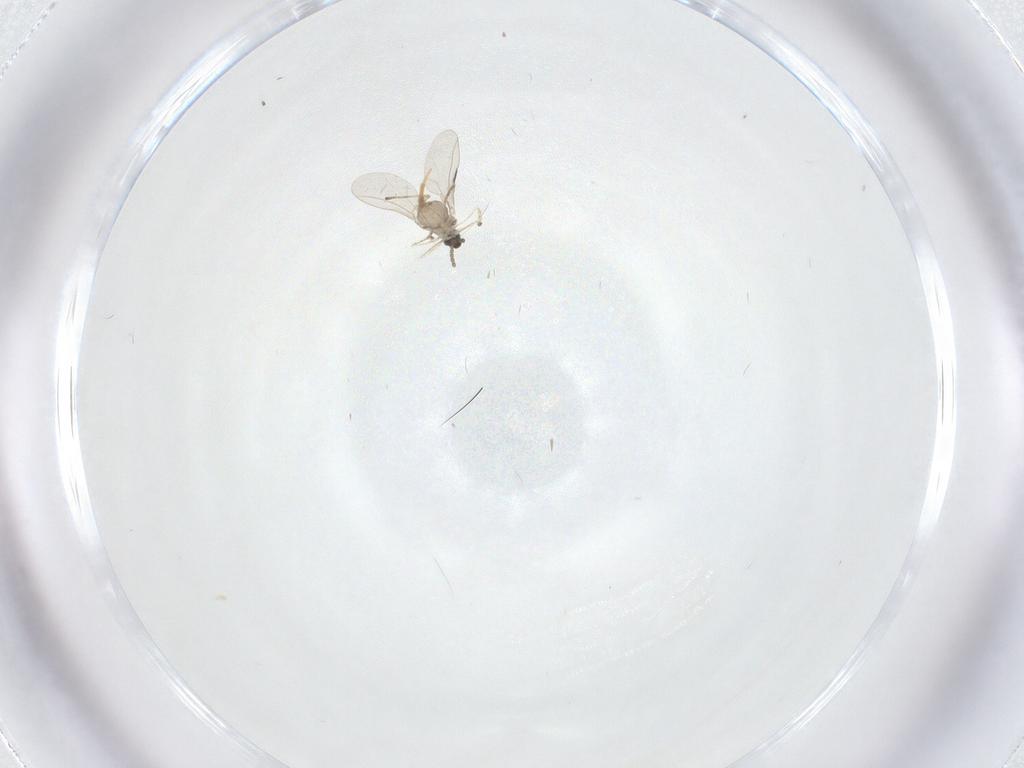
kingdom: Animalia
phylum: Arthropoda
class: Insecta
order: Diptera
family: Cecidomyiidae
